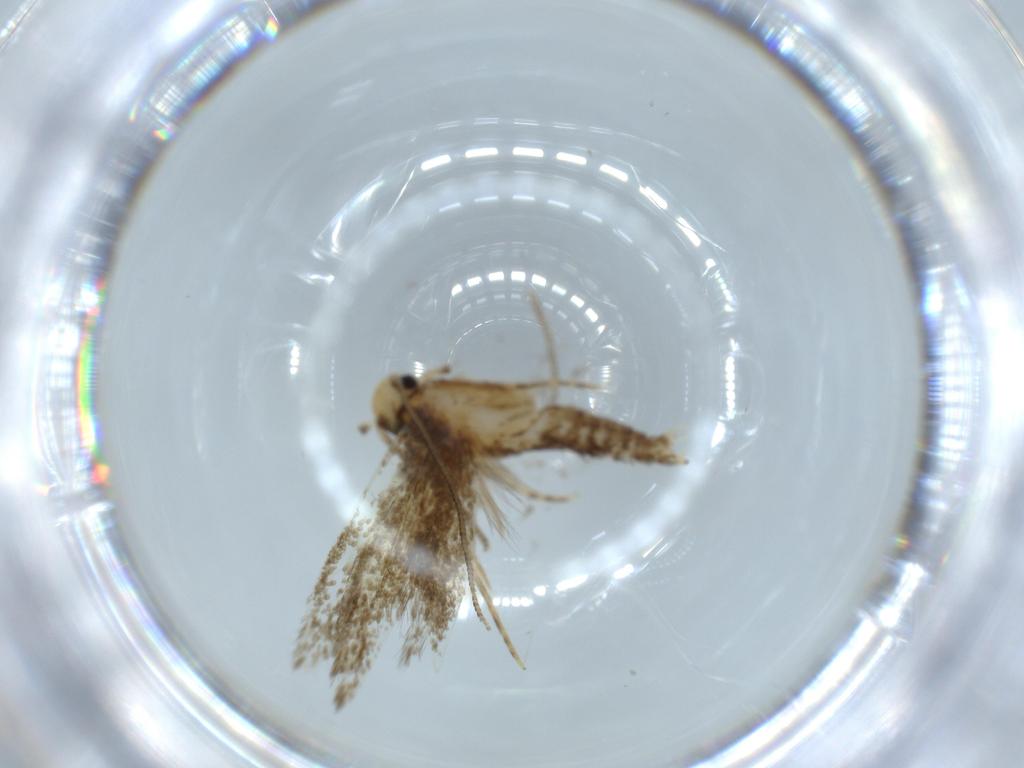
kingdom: Animalia
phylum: Arthropoda
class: Insecta
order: Lepidoptera
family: Tineidae
